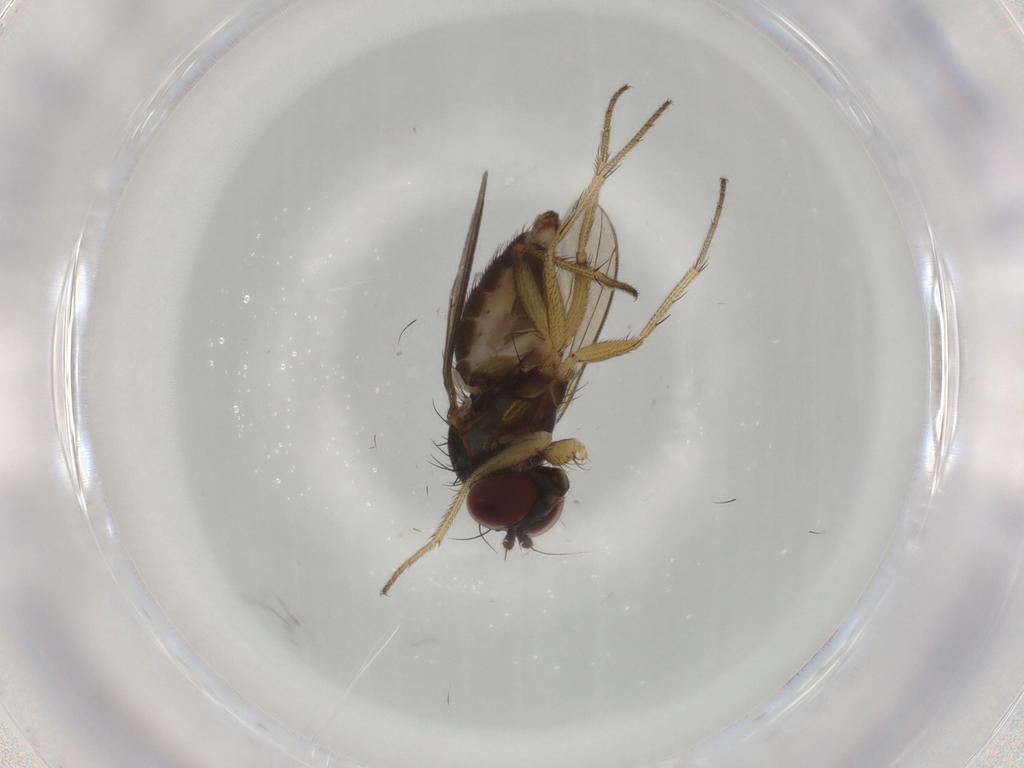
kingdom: Animalia
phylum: Arthropoda
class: Insecta
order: Diptera
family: Dolichopodidae
